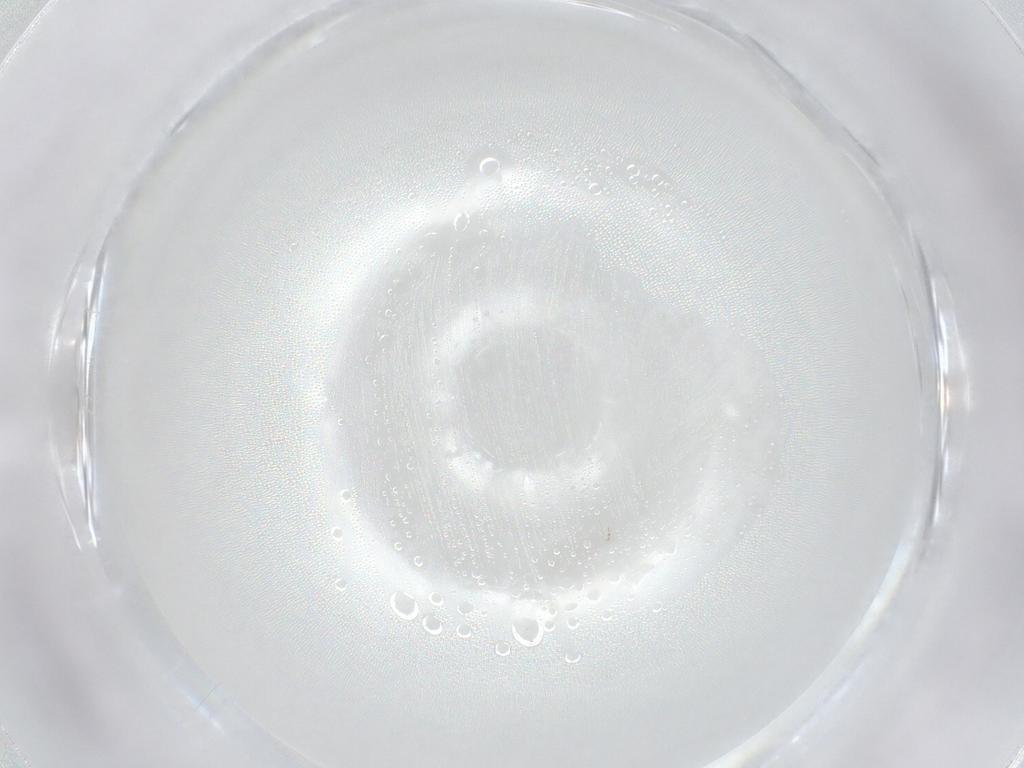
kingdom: Animalia
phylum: Arthropoda
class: Insecta
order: Diptera
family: Ceratopogonidae
